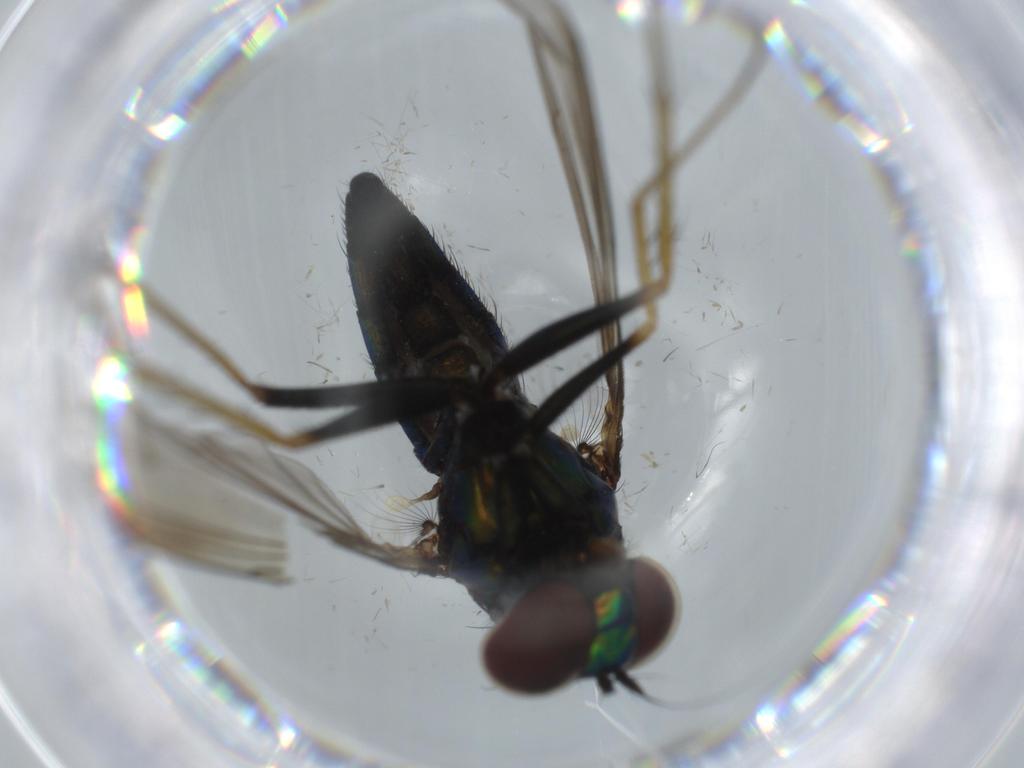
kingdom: Animalia
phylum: Arthropoda
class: Insecta
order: Diptera
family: Dolichopodidae
